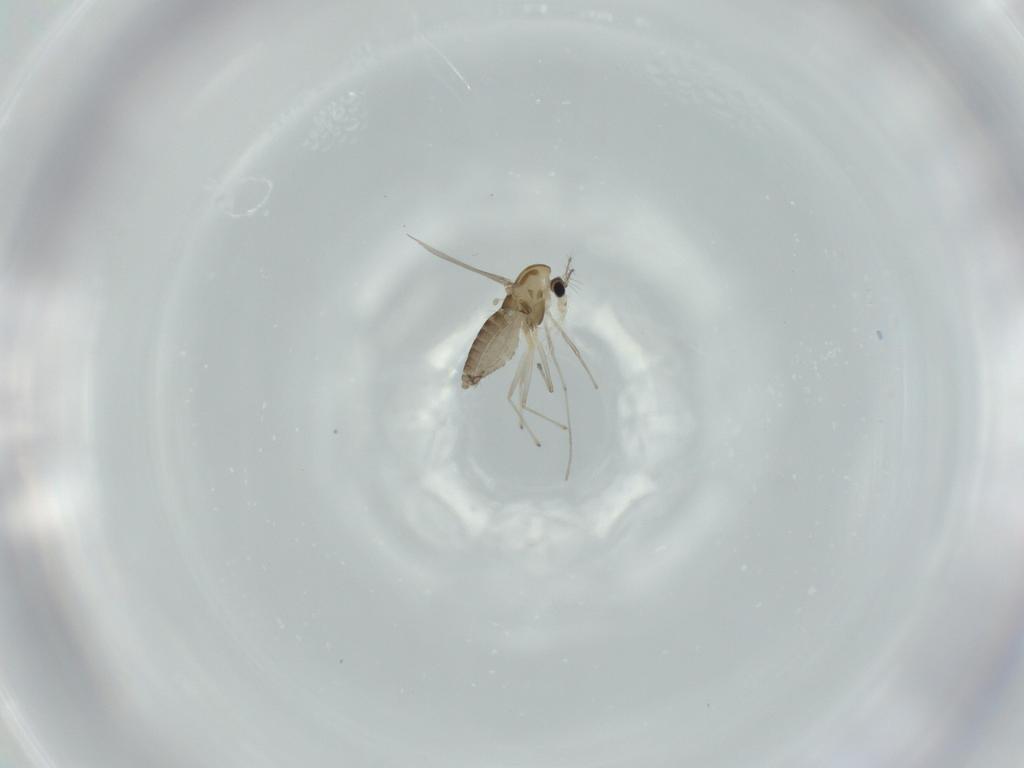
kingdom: Animalia
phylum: Arthropoda
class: Insecta
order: Diptera
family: Chironomidae
